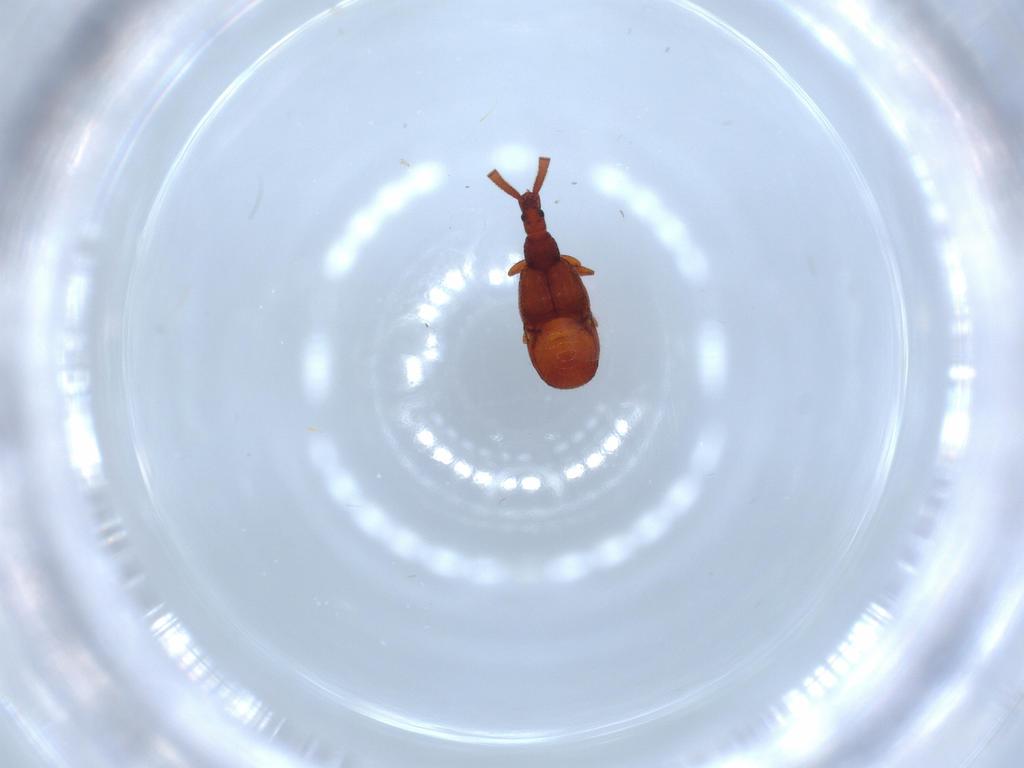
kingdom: Animalia
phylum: Arthropoda
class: Insecta
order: Coleoptera
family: Staphylinidae
